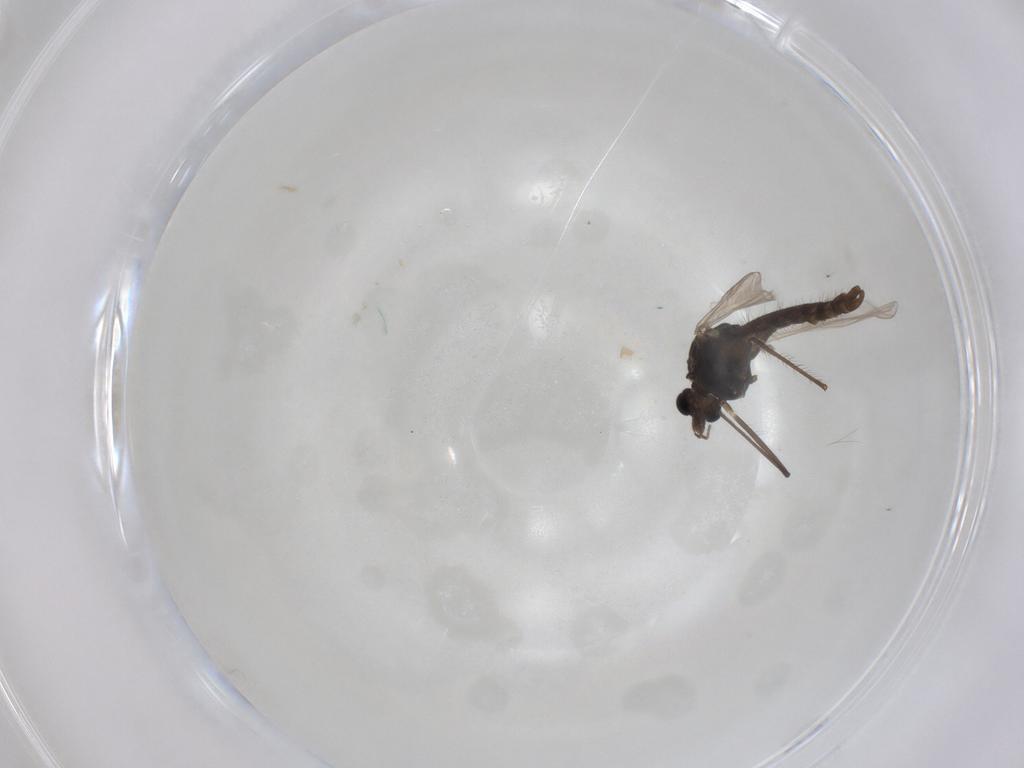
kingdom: Animalia
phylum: Arthropoda
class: Insecta
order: Diptera
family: Chironomidae
